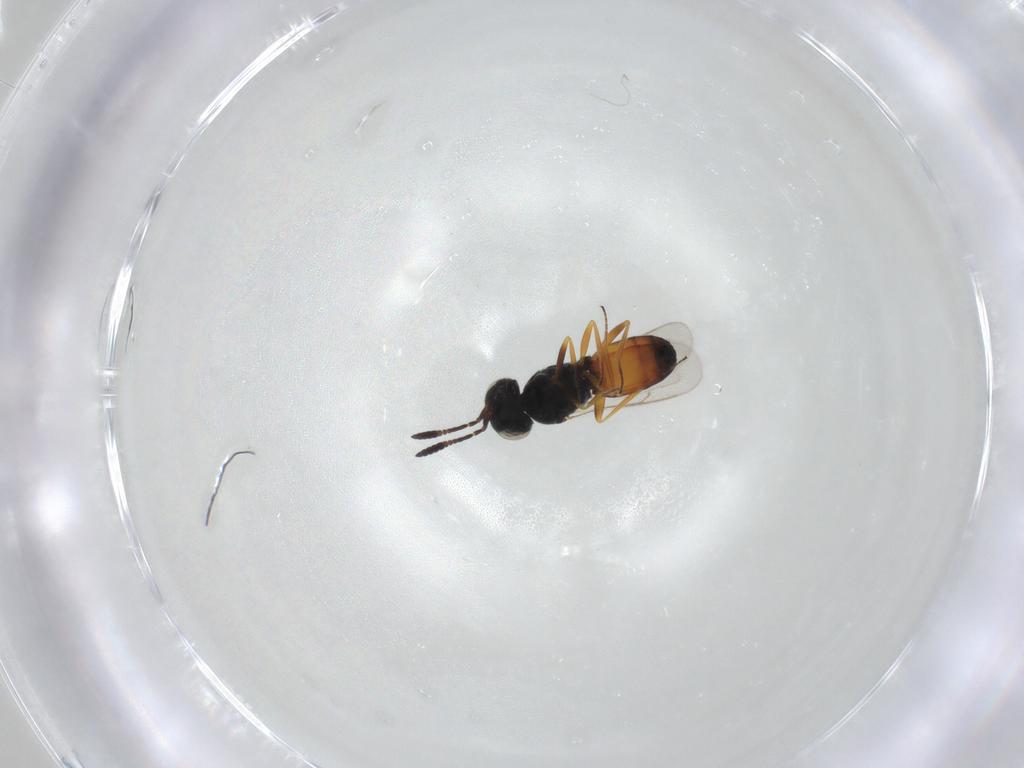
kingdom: Animalia
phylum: Arthropoda
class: Insecta
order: Hymenoptera
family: Scelionidae
